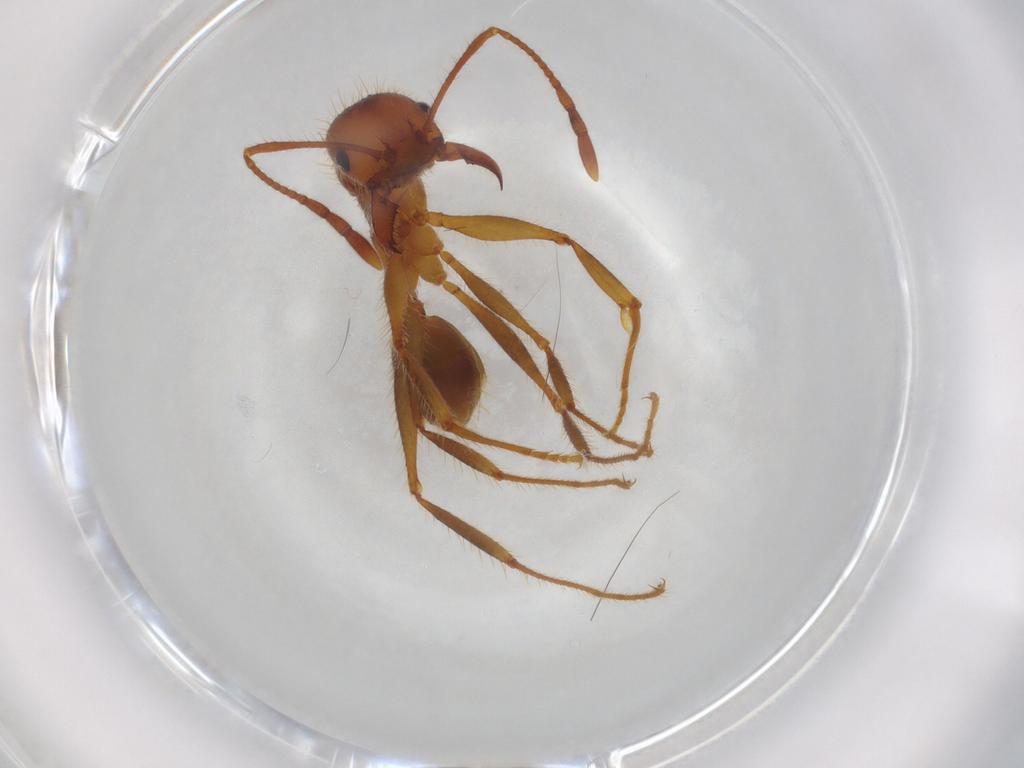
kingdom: Animalia
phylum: Arthropoda
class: Insecta
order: Hymenoptera
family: Formicidae
